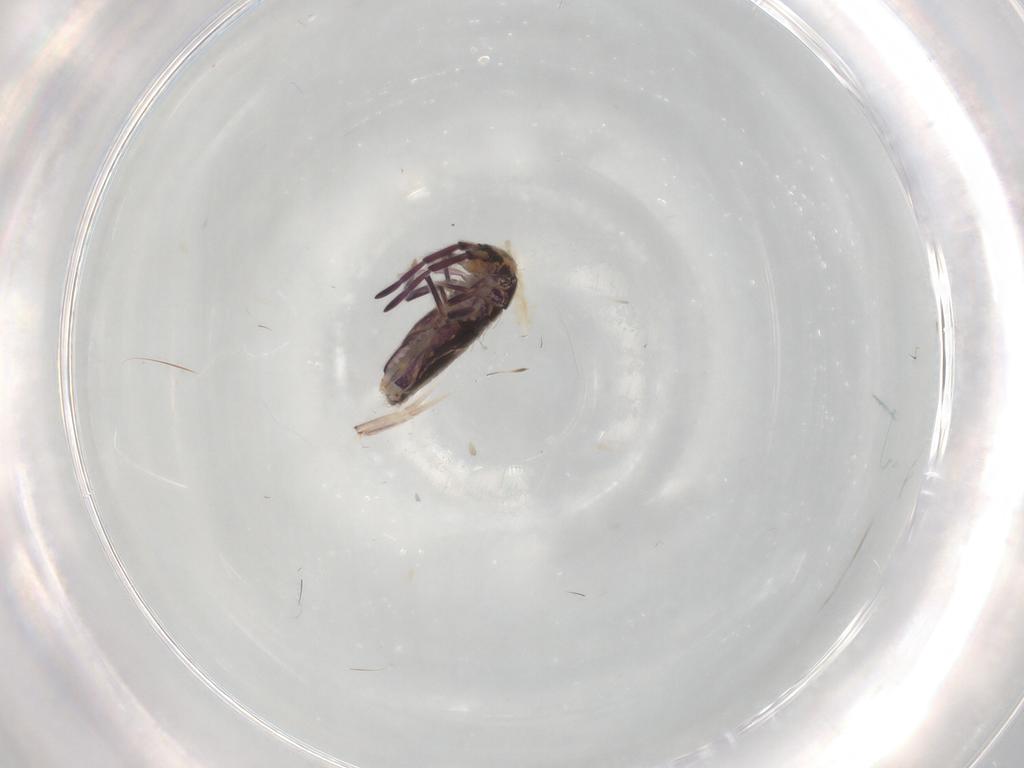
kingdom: Animalia
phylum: Arthropoda
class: Collembola
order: Entomobryomorpha
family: Entomobryidae
